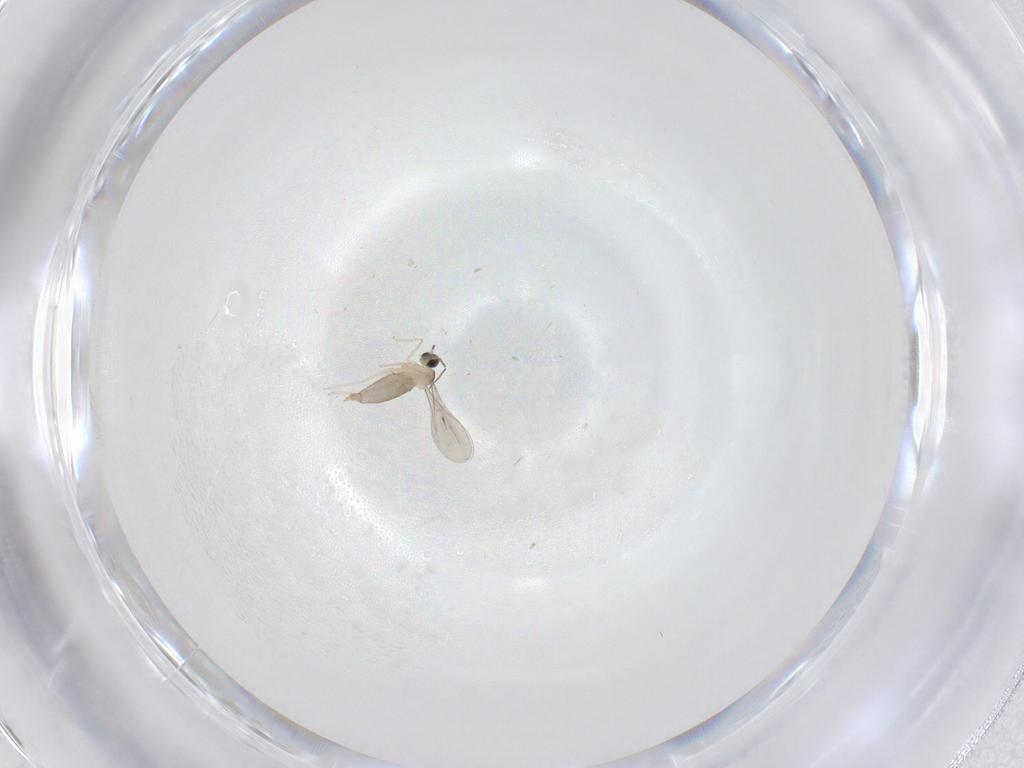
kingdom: Animalia
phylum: Arthropoda
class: Insecta
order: Diptera
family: Cecidomyiidae
